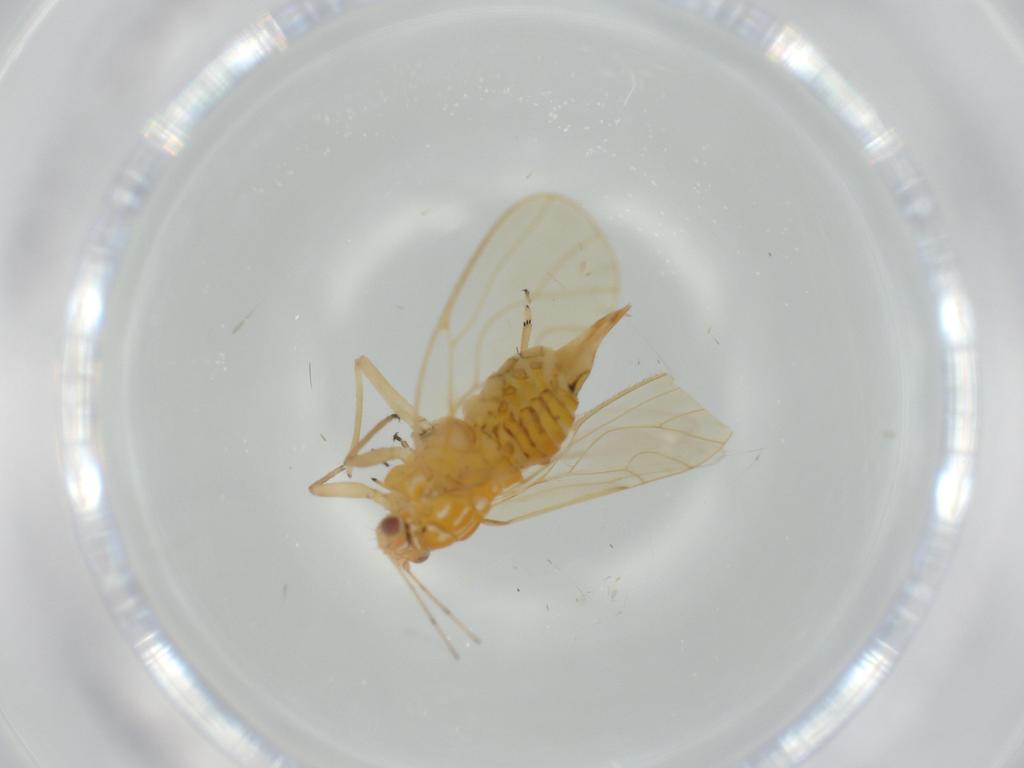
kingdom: Animalia
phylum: Arthropoda
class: Insecta
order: Hemiptera
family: Psyllidae
